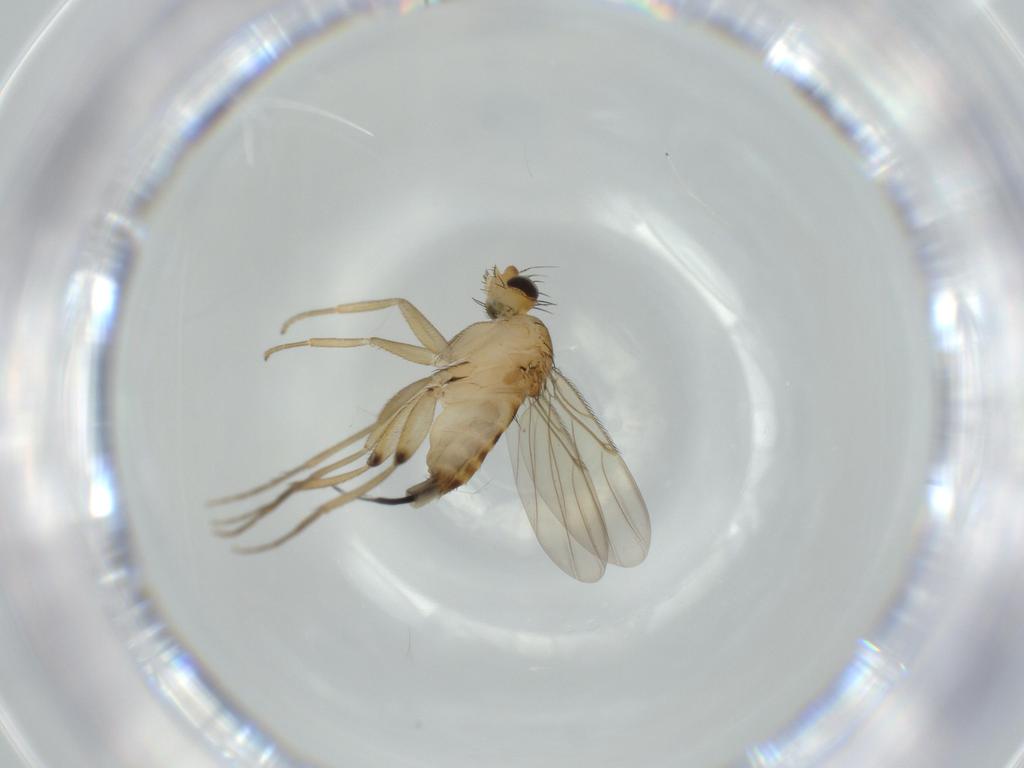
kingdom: Animalia
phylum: Arthropoda
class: Insecta
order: Diptera
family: Phoridae
